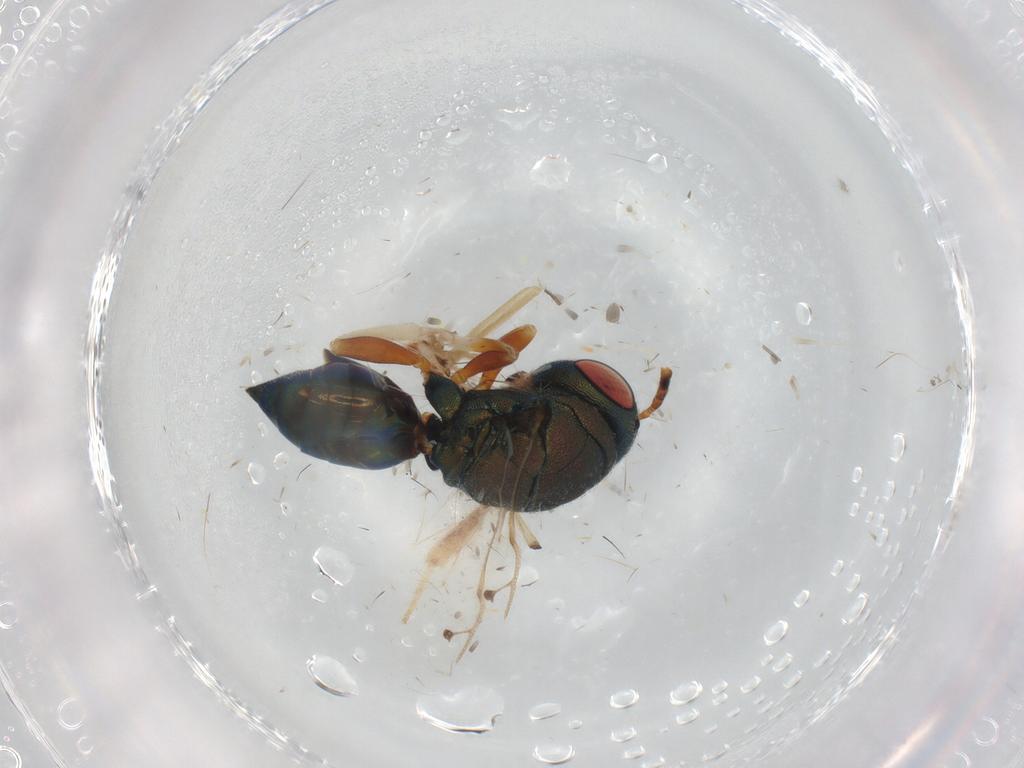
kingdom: Animalia
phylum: Arthropoda
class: Insecta
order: Hymenoptera
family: Pteromalidae
